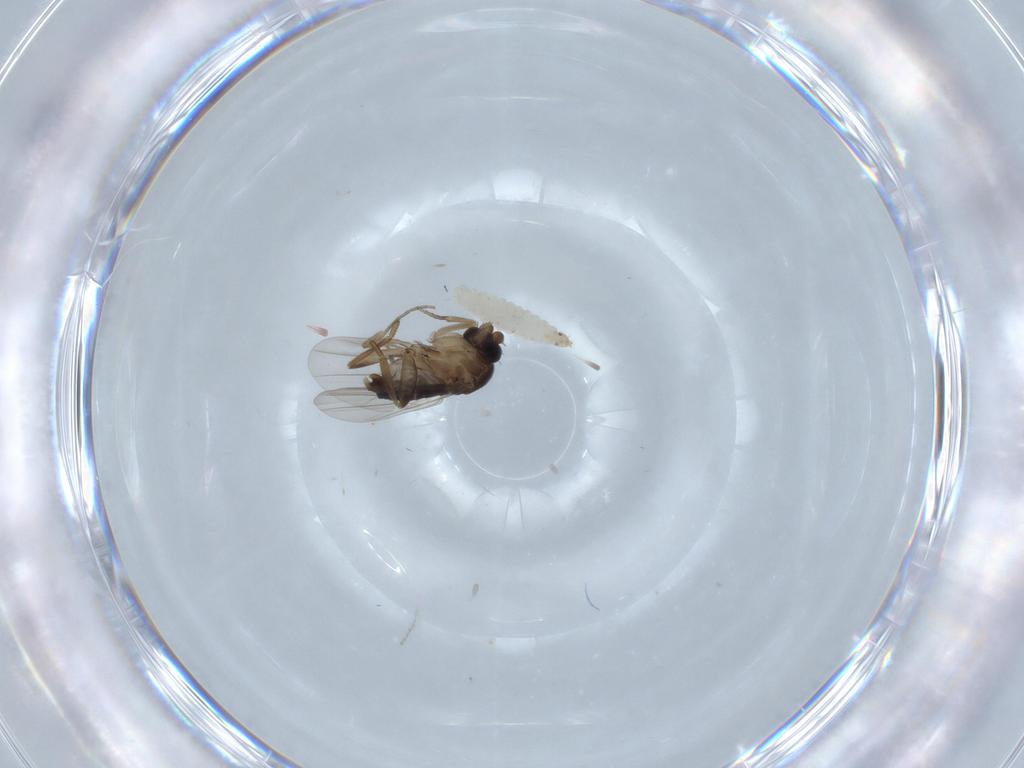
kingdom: Animalia
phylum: Arthropoda
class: Insecta
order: Diptera
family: Phoridae
